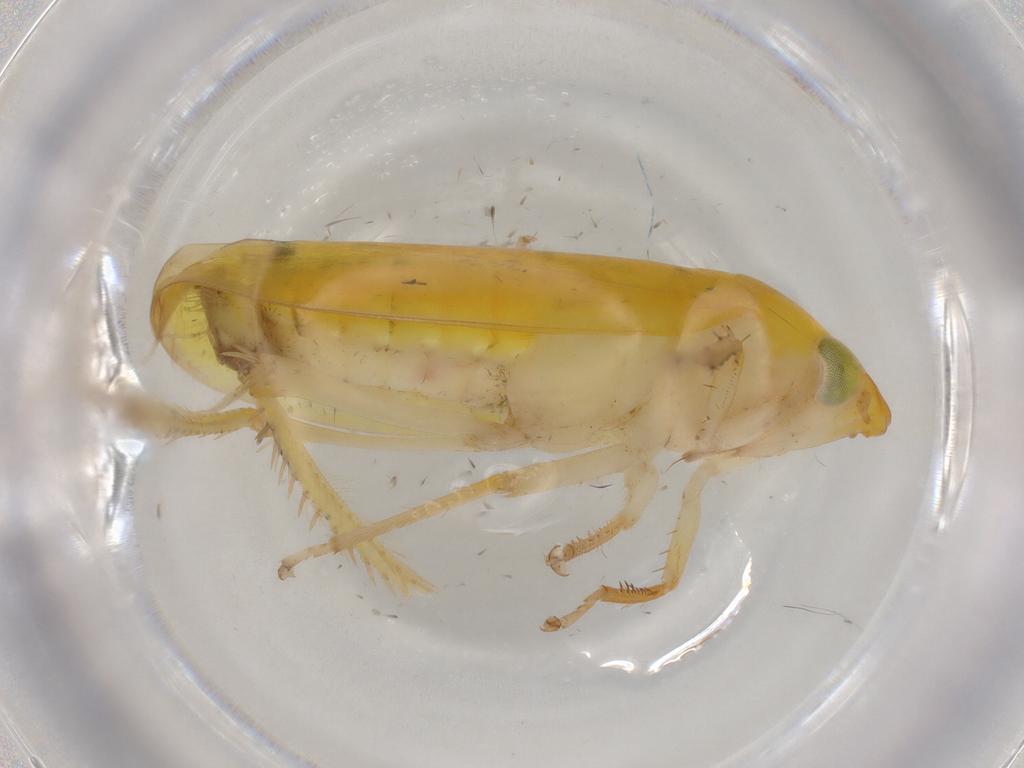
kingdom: Animalia
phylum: Arthropoda
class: Insecta
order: Hemiptera
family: Cicadellidae
